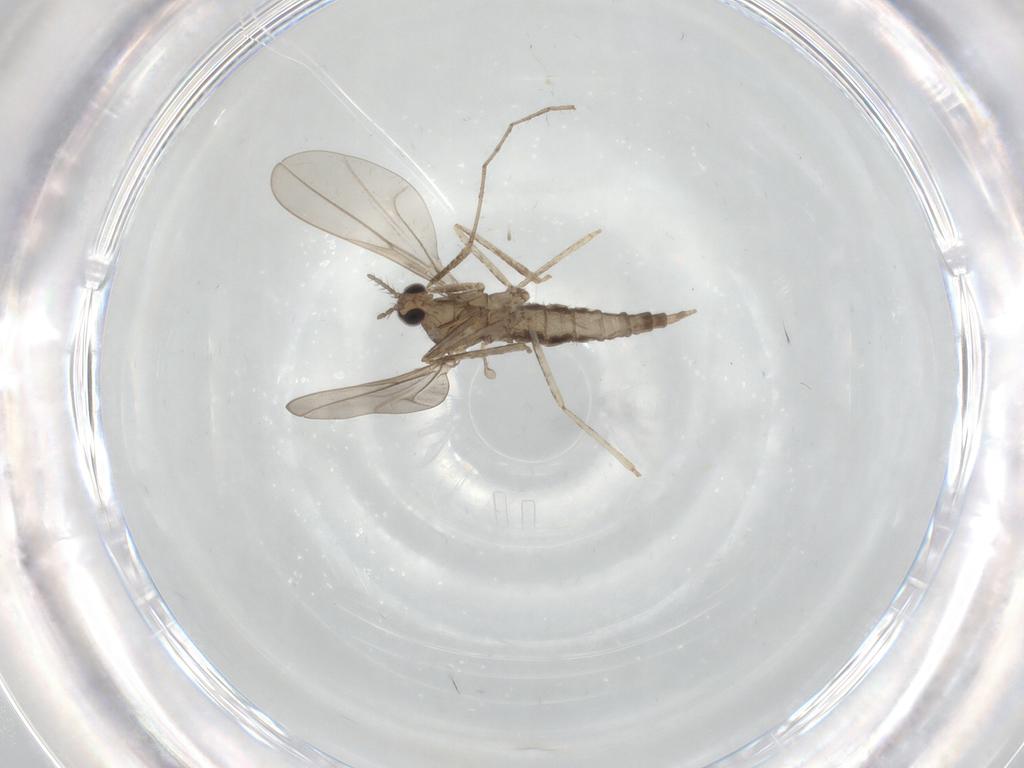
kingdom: Animalia
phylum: Arthropoda
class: Insecta
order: Diptera
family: Cecidomyiidae
